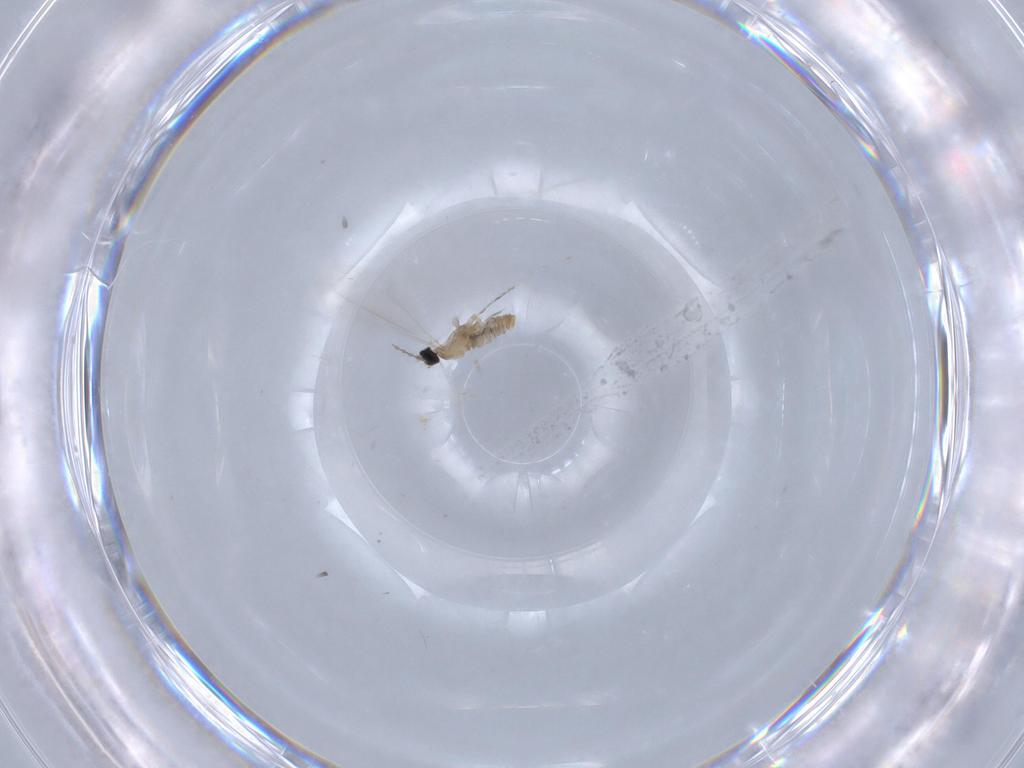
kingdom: Animalia
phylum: Arthropoda
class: Insecta
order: Diptera
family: Cecidomyiidae
